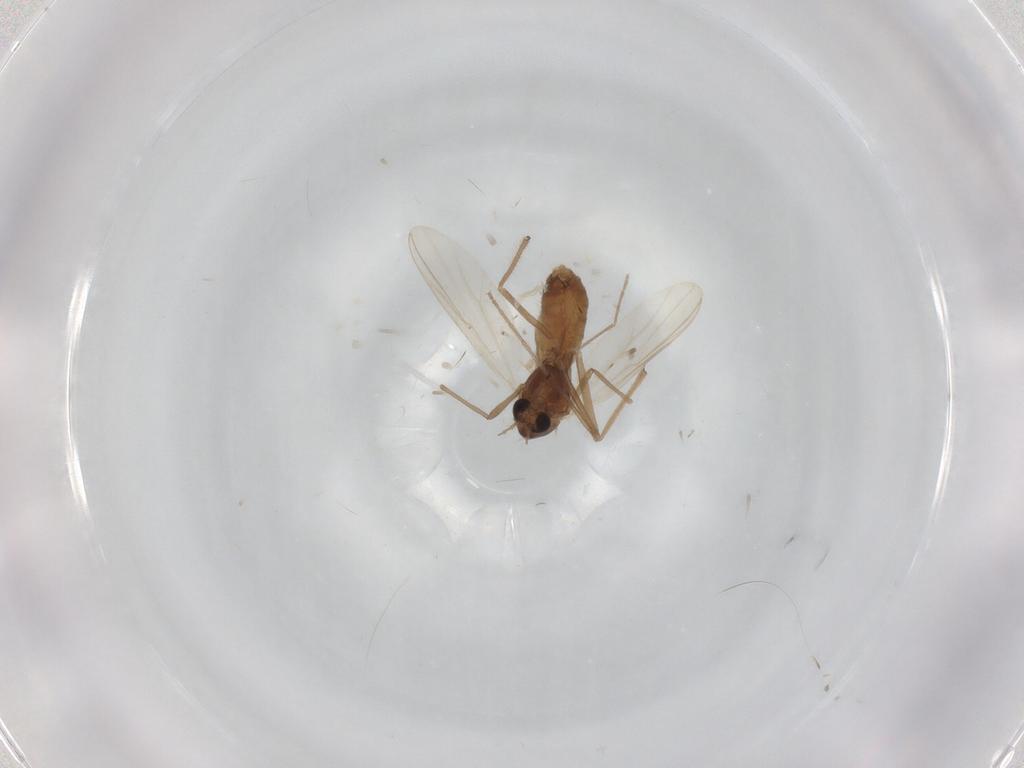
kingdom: Animalia
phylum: Arthropoda
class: Insecta
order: Diptera
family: Chironomidae
